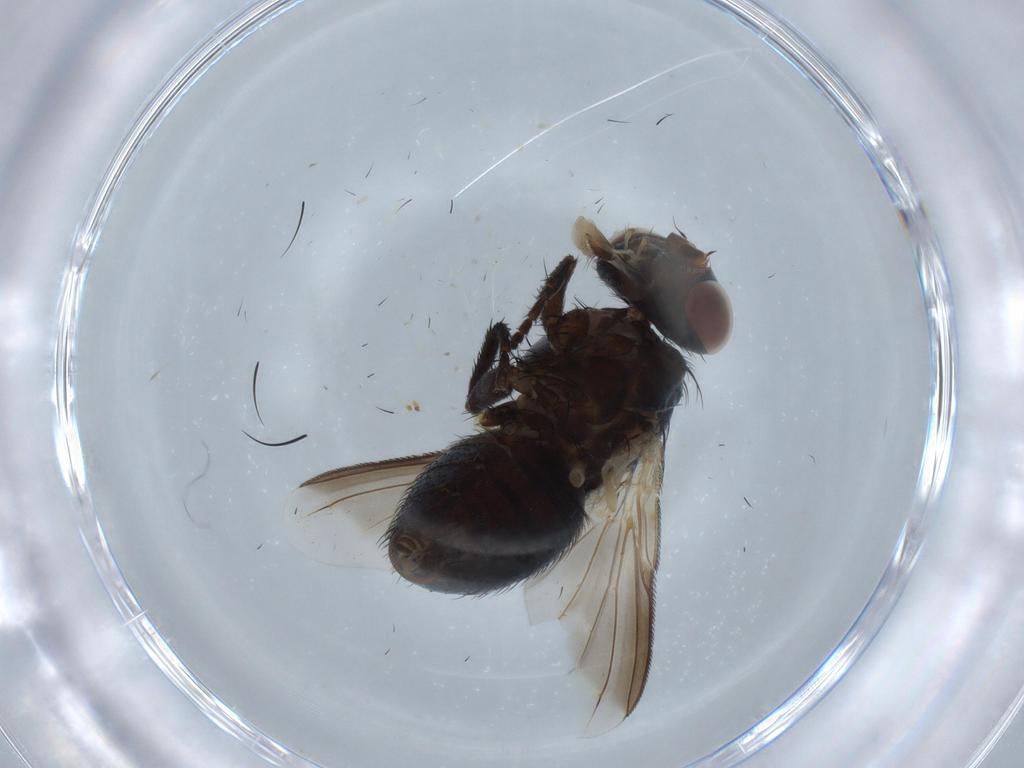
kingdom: Animalia
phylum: Arthropoda
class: Insecta
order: Diptera
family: Tachinidae
